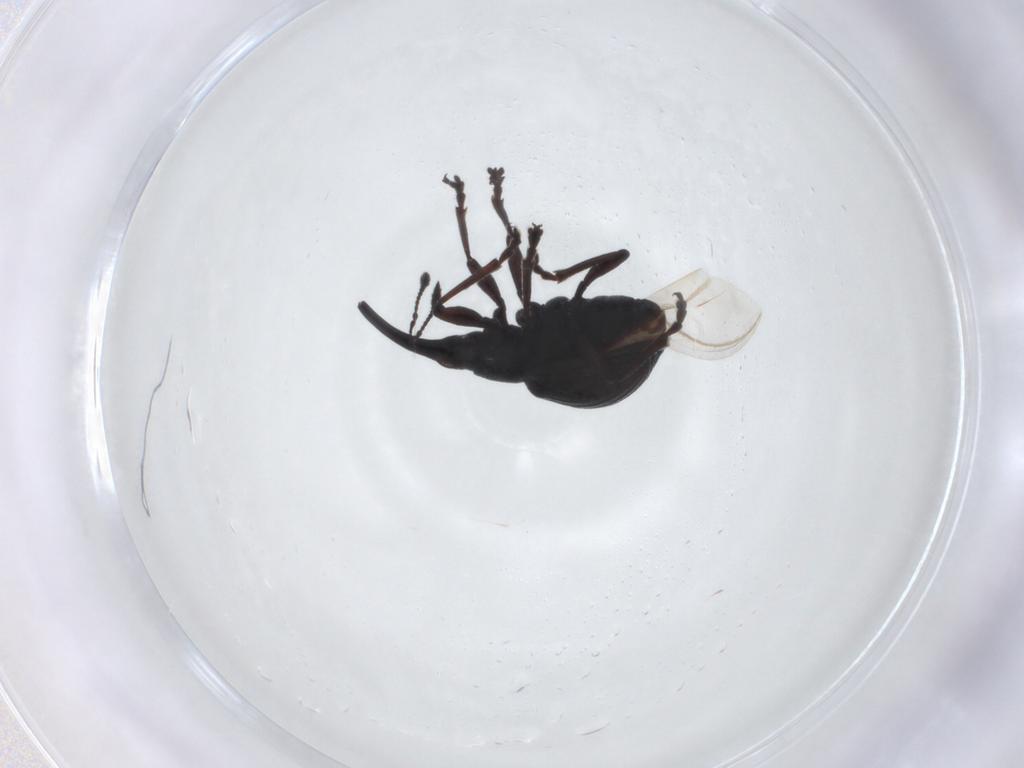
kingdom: Animalia
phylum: Arthropoda
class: Insecta
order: Coleoptera
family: Brentidae
